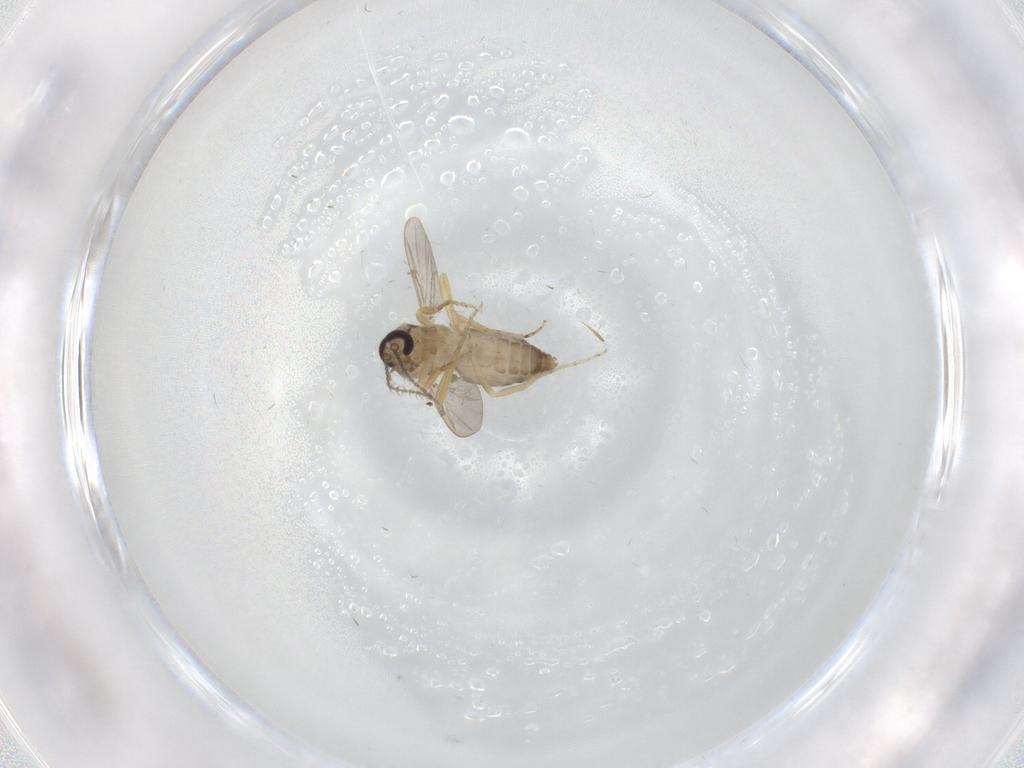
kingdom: Animalia
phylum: Arthropoda
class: Insecta
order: Diptera
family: Ceratopogonidae
